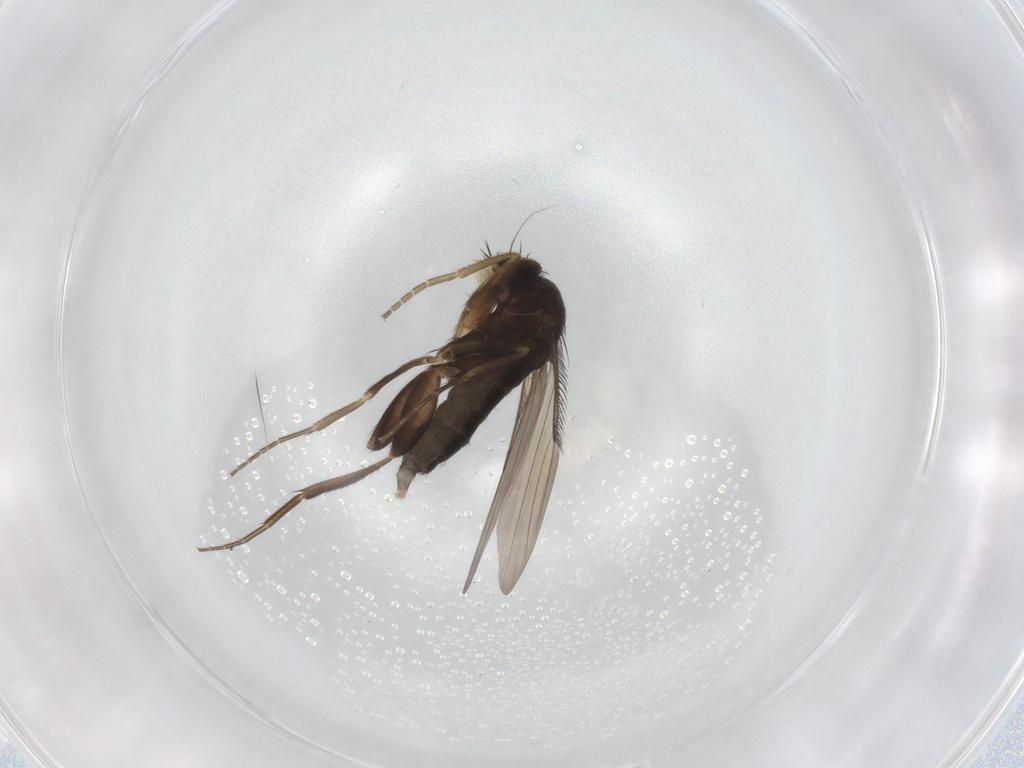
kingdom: Animalia
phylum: Arthropoda
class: Insecta
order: Diptera
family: Phoridae
